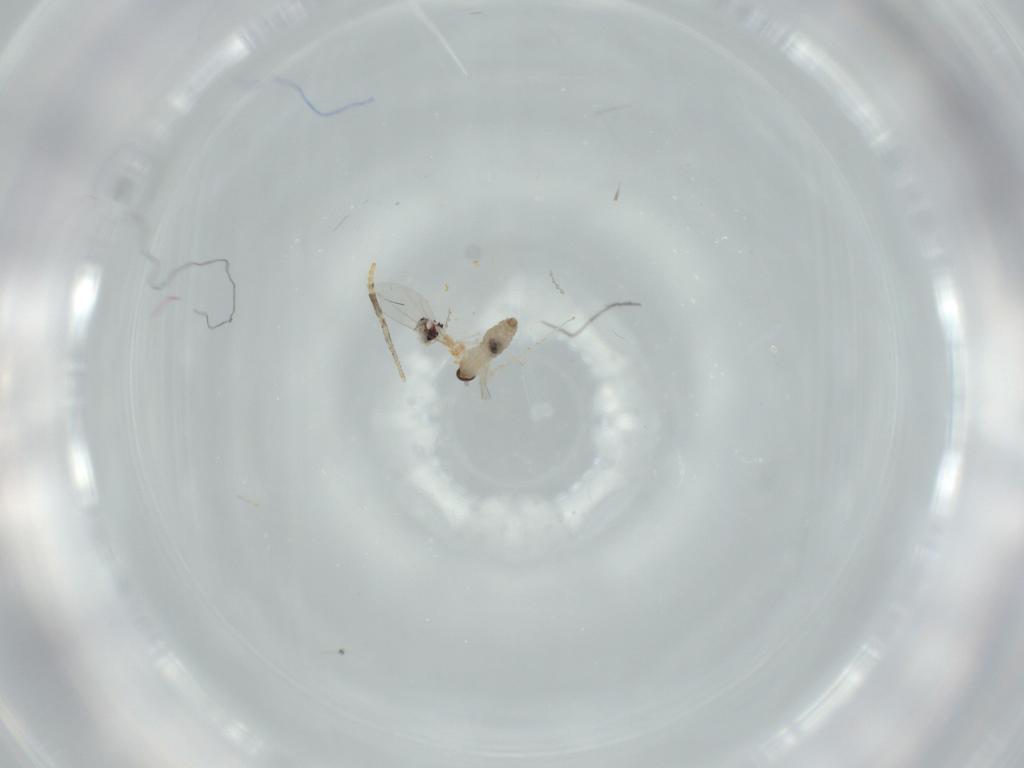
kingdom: Animalia
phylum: Arthropoda
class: Insecta
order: Diptera
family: Cecidomyiidae
